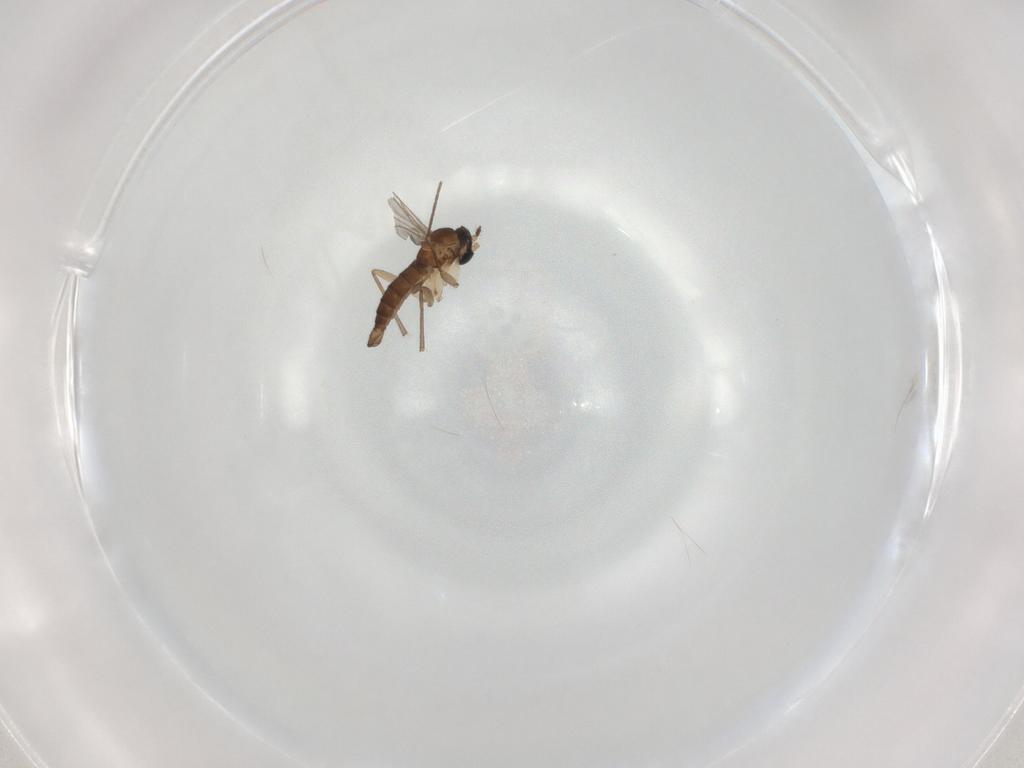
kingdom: Animalia
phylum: Arthropoda
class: Insecta
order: Diptera
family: Sciaridae
